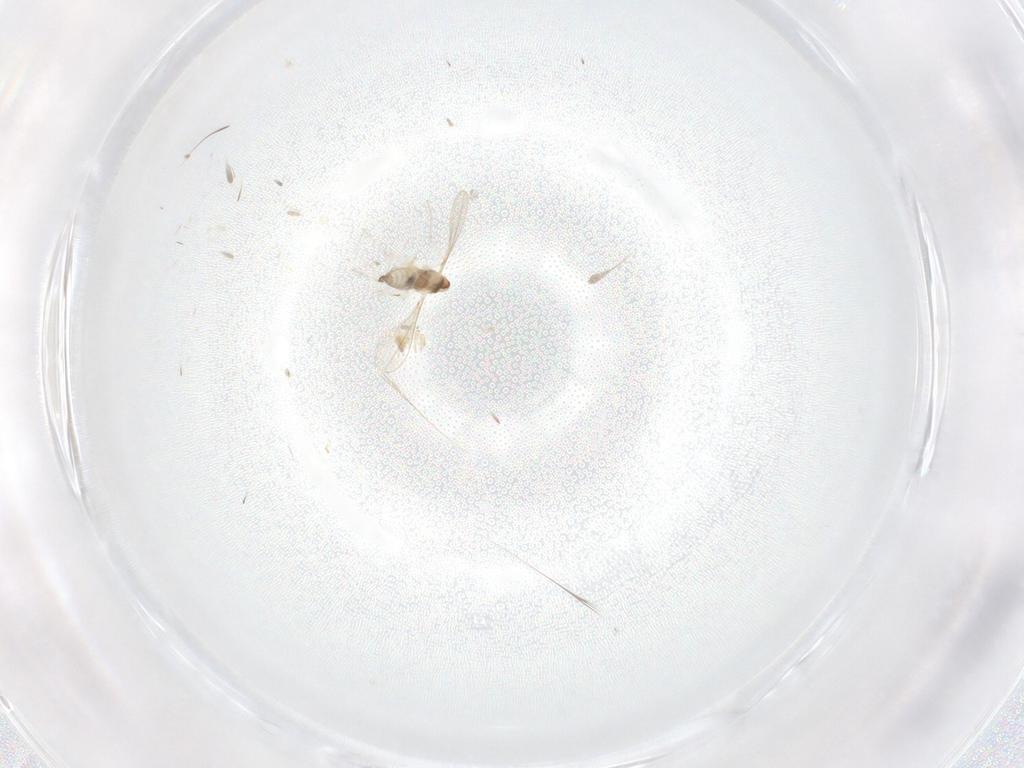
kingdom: Animalia
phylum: Arthropoda
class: Insecta
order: Diptera
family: Cecidomyiidae
